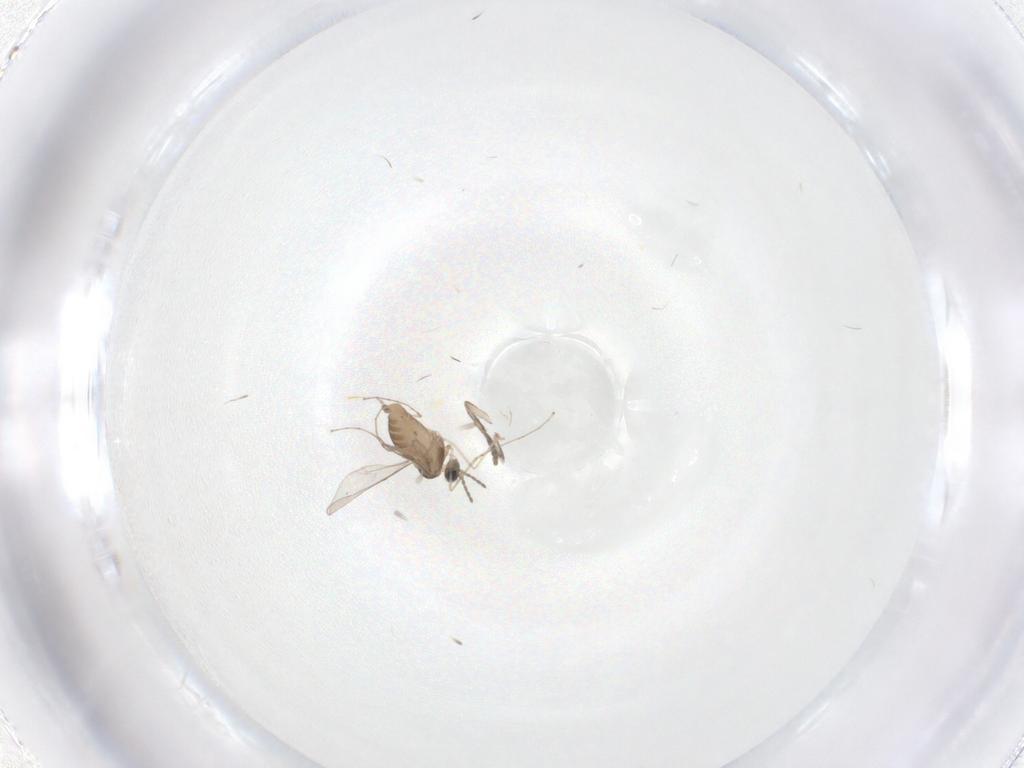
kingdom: Animalia
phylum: Arthropoda
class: Insecta
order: Diptera
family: Cecidomyiidae
